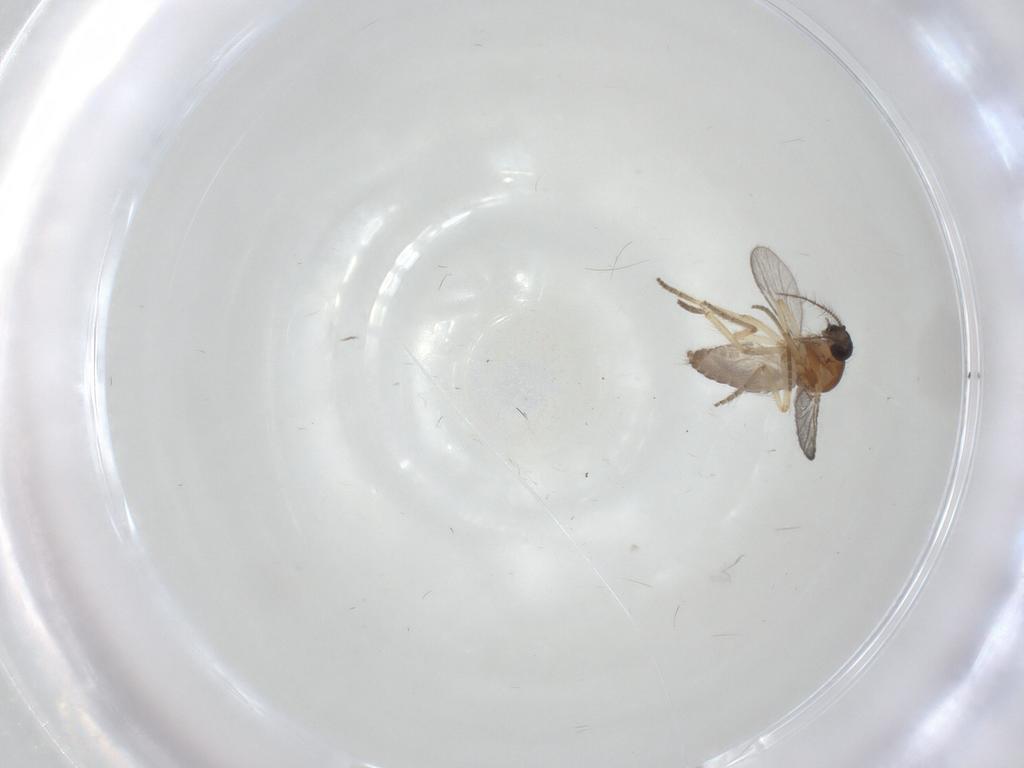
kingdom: Animalia
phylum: Arthropoda
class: Insecta
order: Diptera
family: Ceratopogonidae
